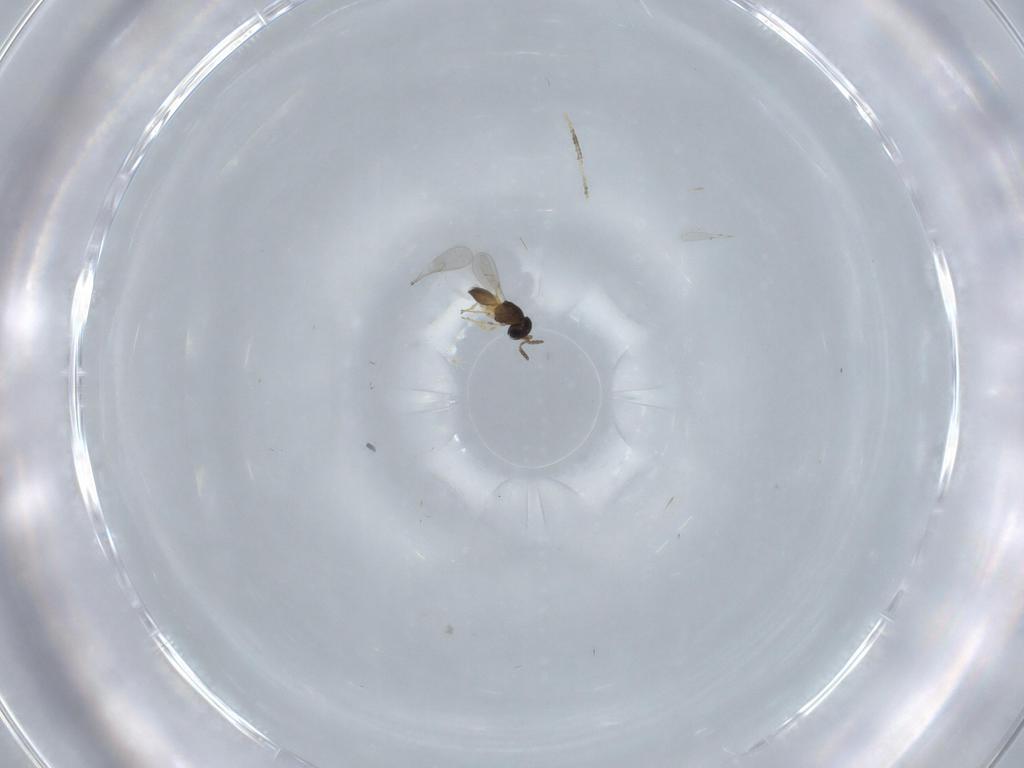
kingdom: Animalia
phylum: Arthropoda
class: Insecta
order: Hymenoptera
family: Scelionidae
